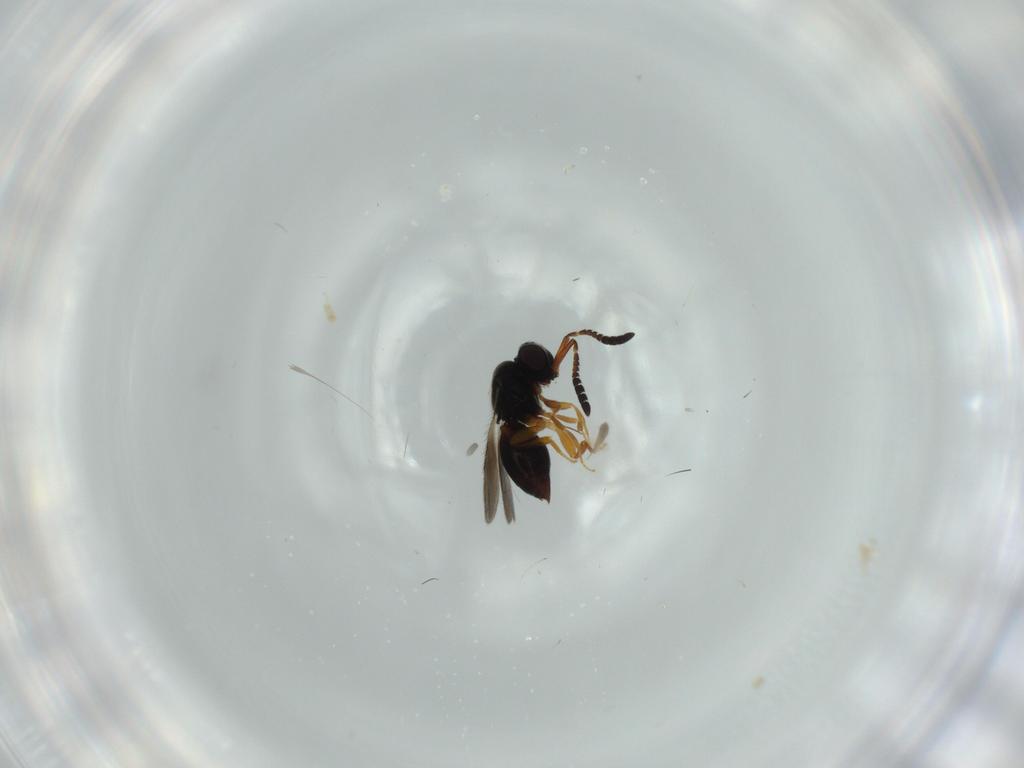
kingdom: Animalia
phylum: Arthropoda
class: Insecta
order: Hymenoptera
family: Ceraphronidae
